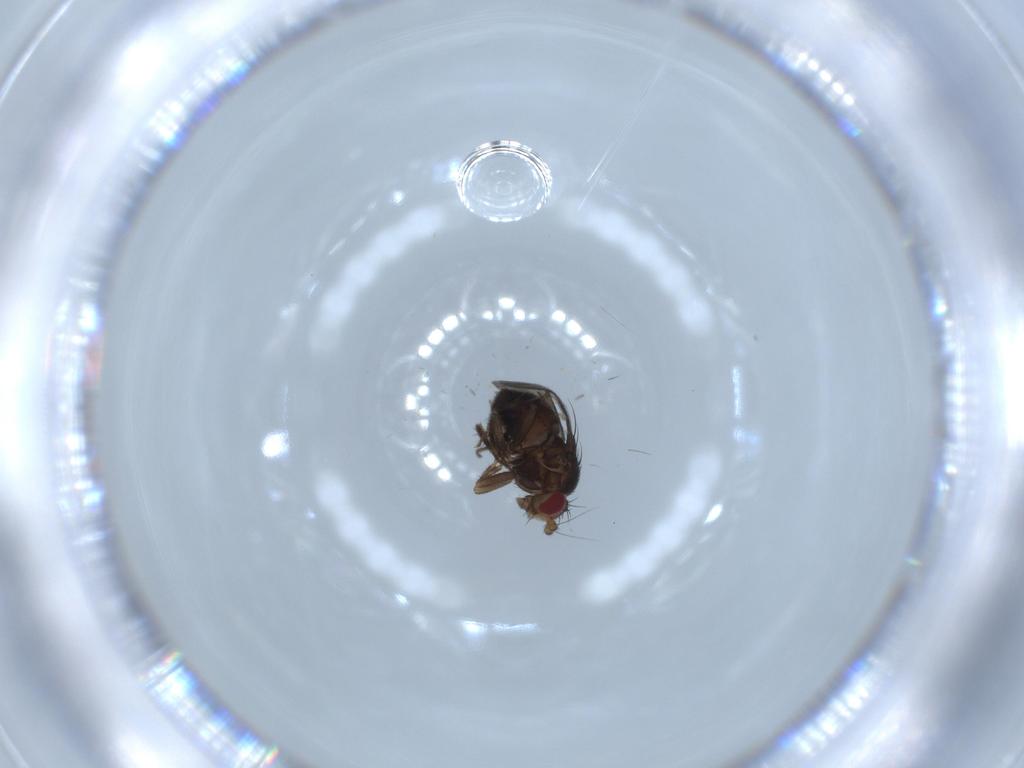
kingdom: Animalia
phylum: Arthropoda
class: Insecta
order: Diptera
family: Sphaeroceridae
